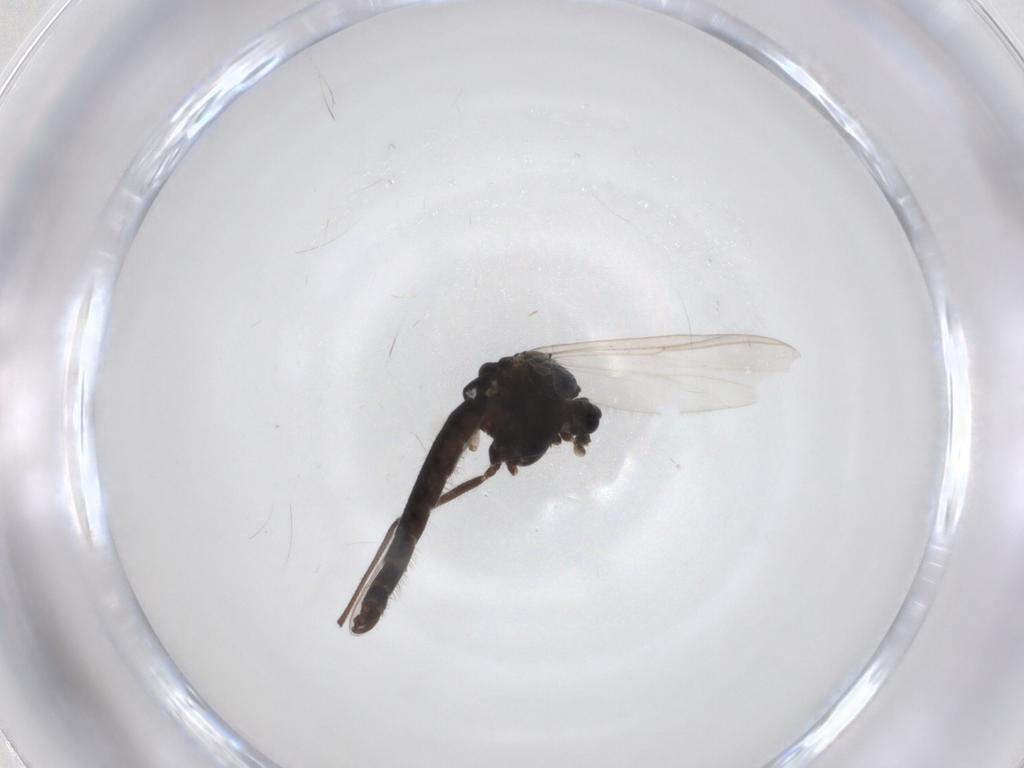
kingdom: Animalia
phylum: Arthropoda
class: Insecta
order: Diptera
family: Chironomidae
